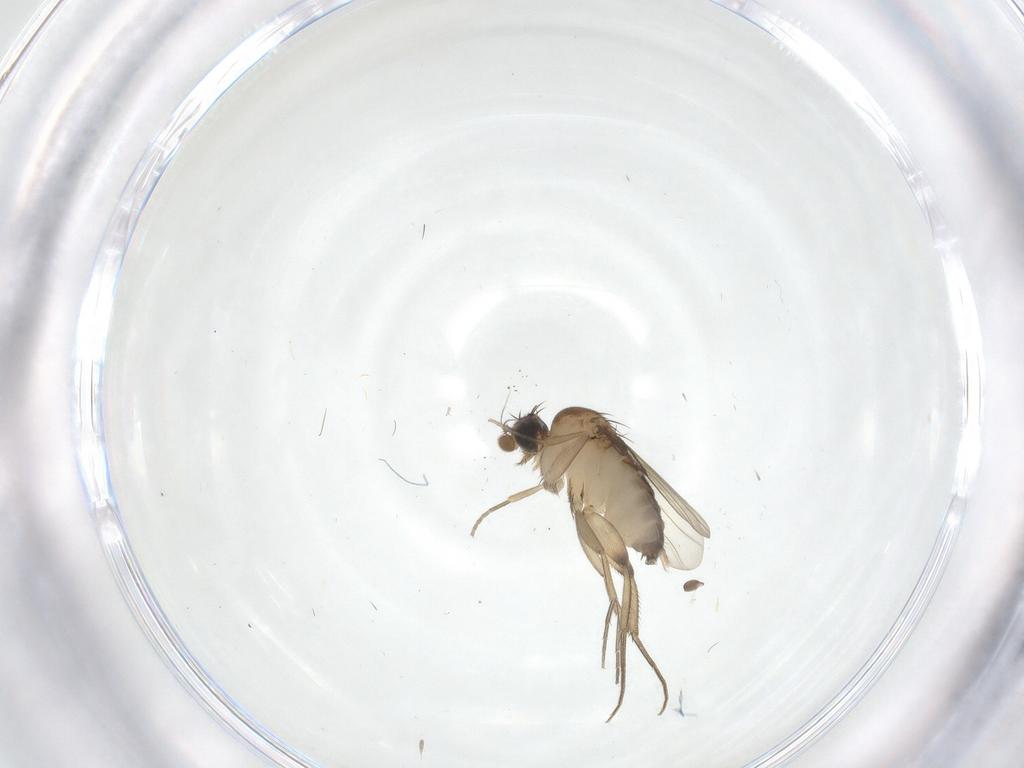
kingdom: Animalia
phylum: Arthropoda
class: Insecta
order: Diptera
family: Phoridae
